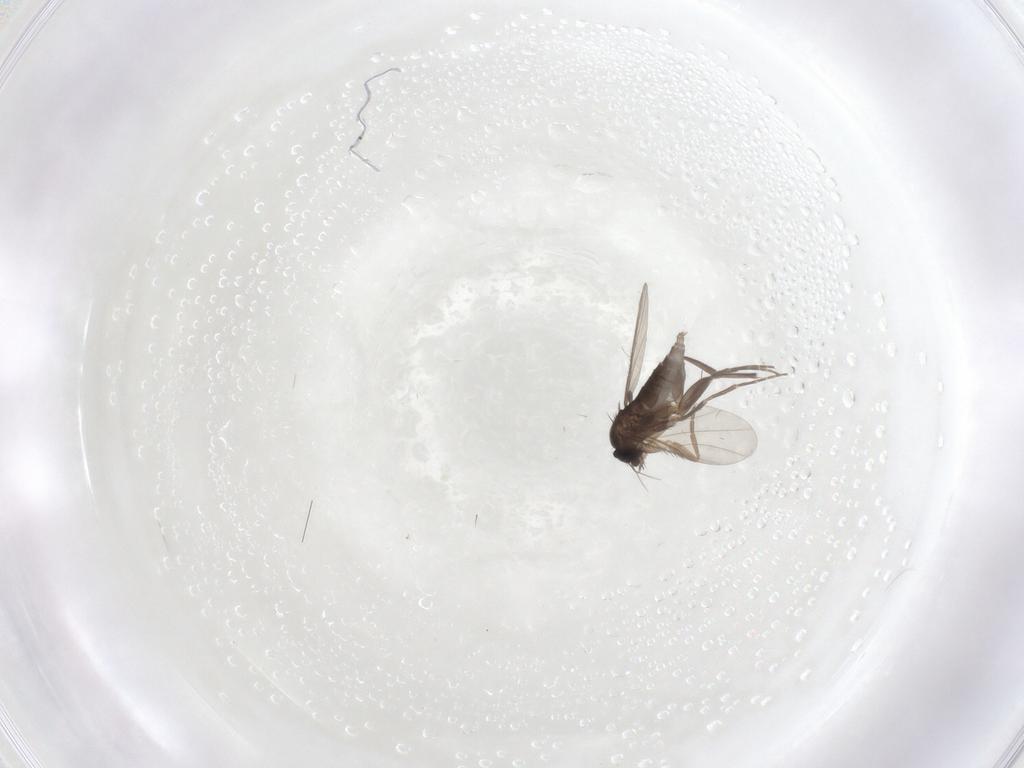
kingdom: Animalia
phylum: Arthropoda
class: Insecta
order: Diptera
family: Phoridae
